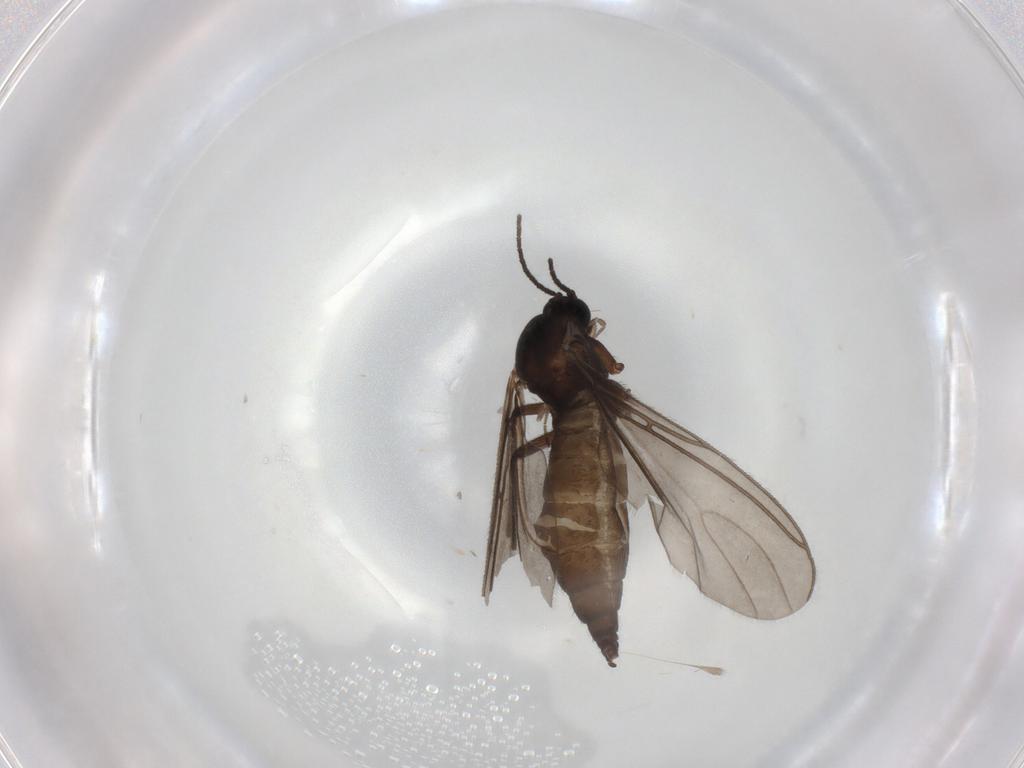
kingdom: Animalia
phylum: Arthropoda
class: Insecta
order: Diptera
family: Sciaridae
